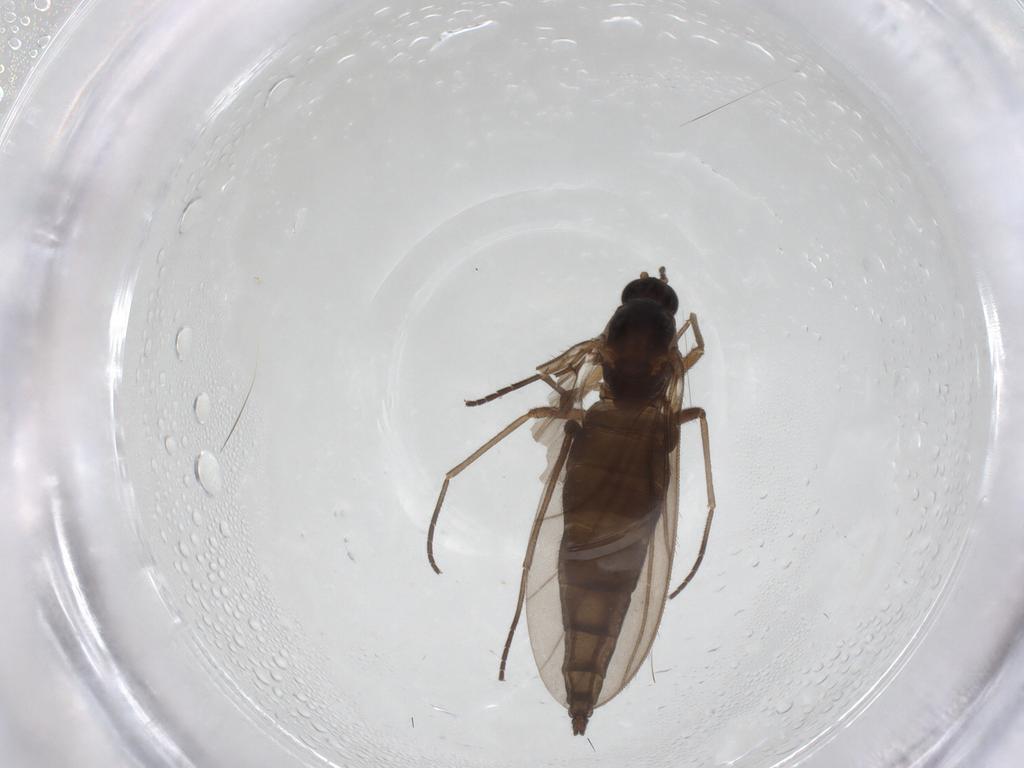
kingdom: Animalia
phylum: Arthropoda
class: Insecta
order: Diptera
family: Sciaridae
